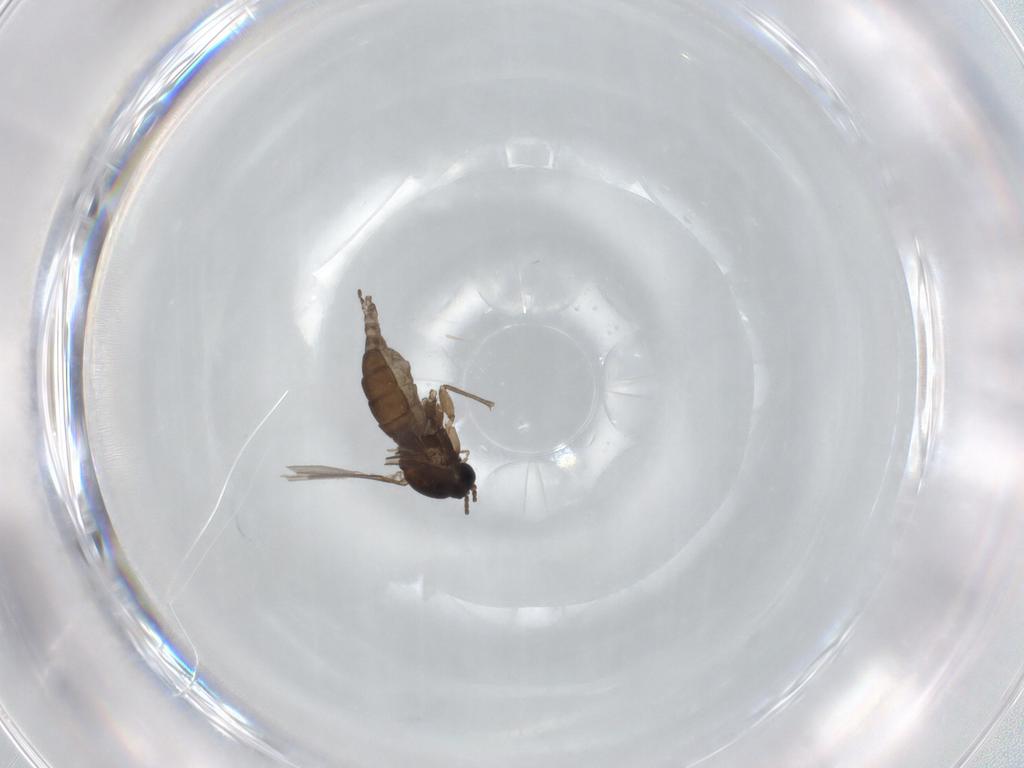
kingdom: Animalia
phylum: Arthropoda
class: Insecta
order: Diptera
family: Sciaridae
